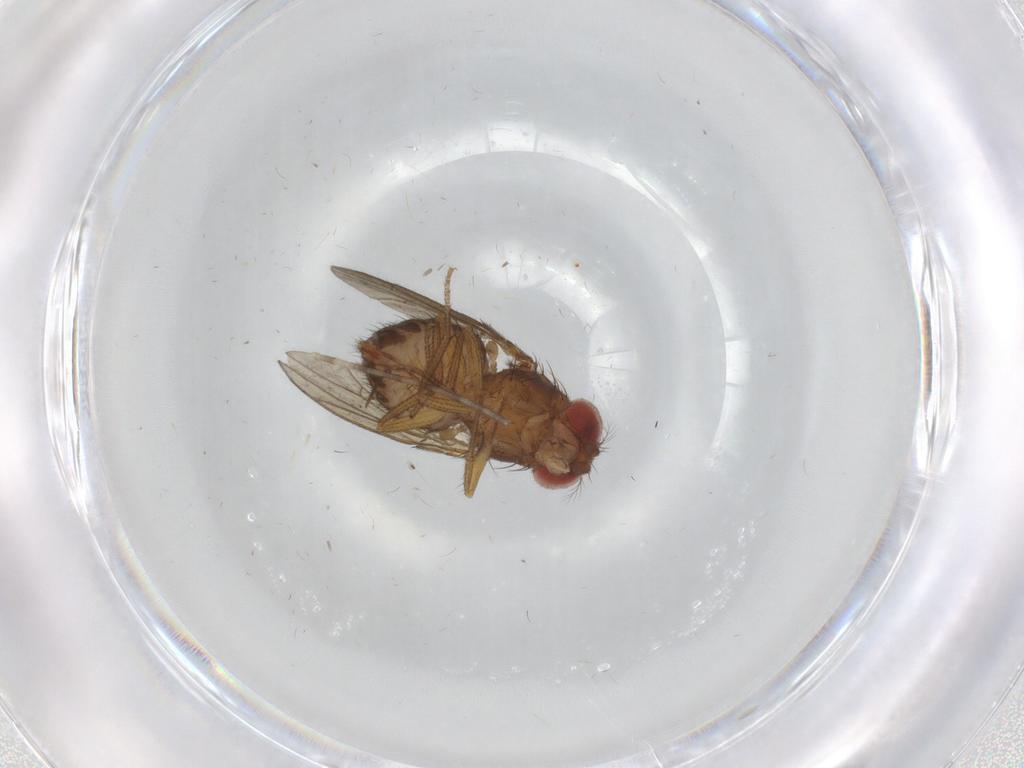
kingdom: Animalia
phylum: Arthropoda
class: Insecta
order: Diptera
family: Drosophilidae
